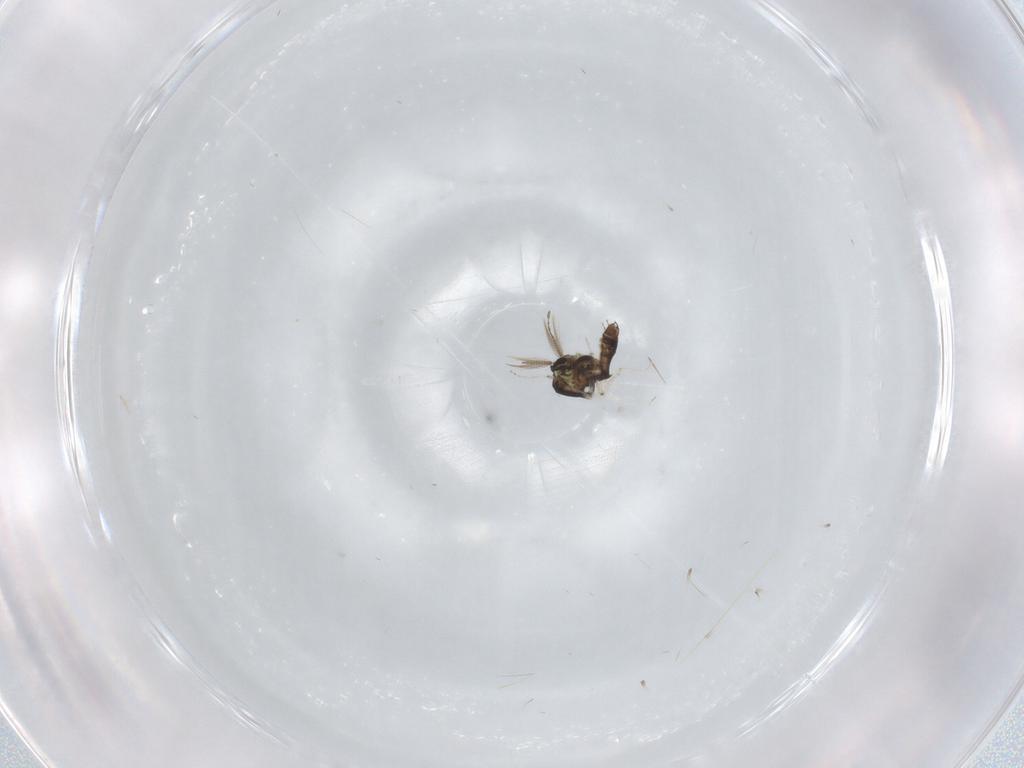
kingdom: Animalia
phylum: Arthropoda
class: Insecta
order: Diptera
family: Ceratopogonidae
